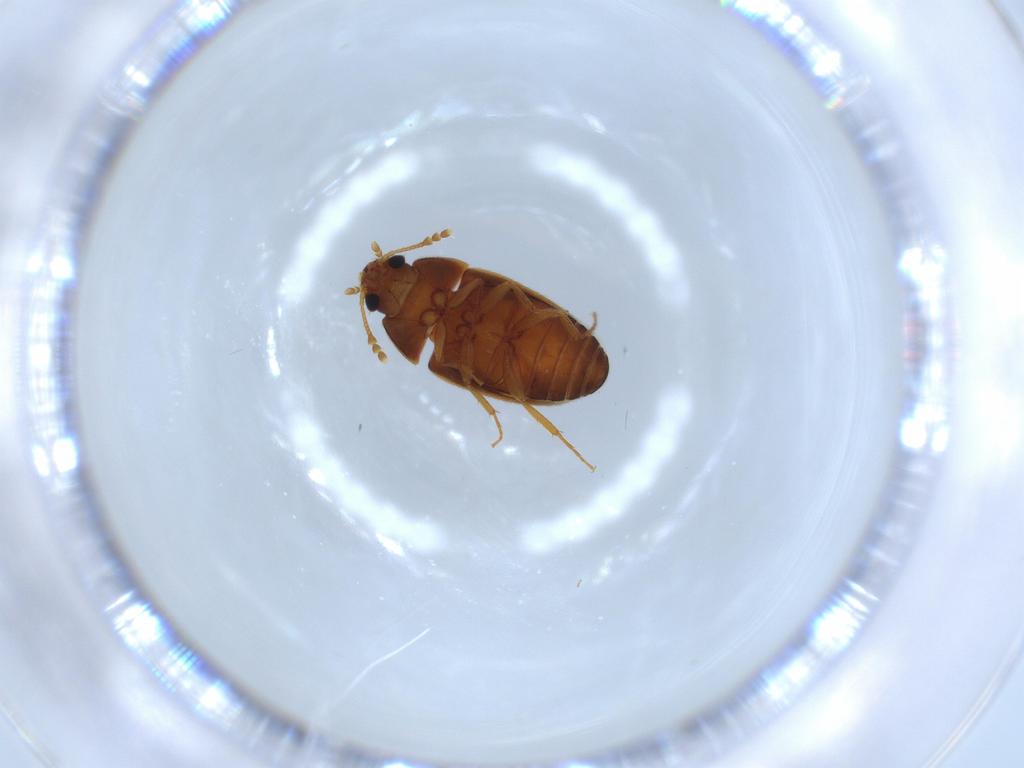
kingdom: Animalia
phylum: Arthropoda
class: Insecta
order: Coleoptera
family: Mycetophagidae
